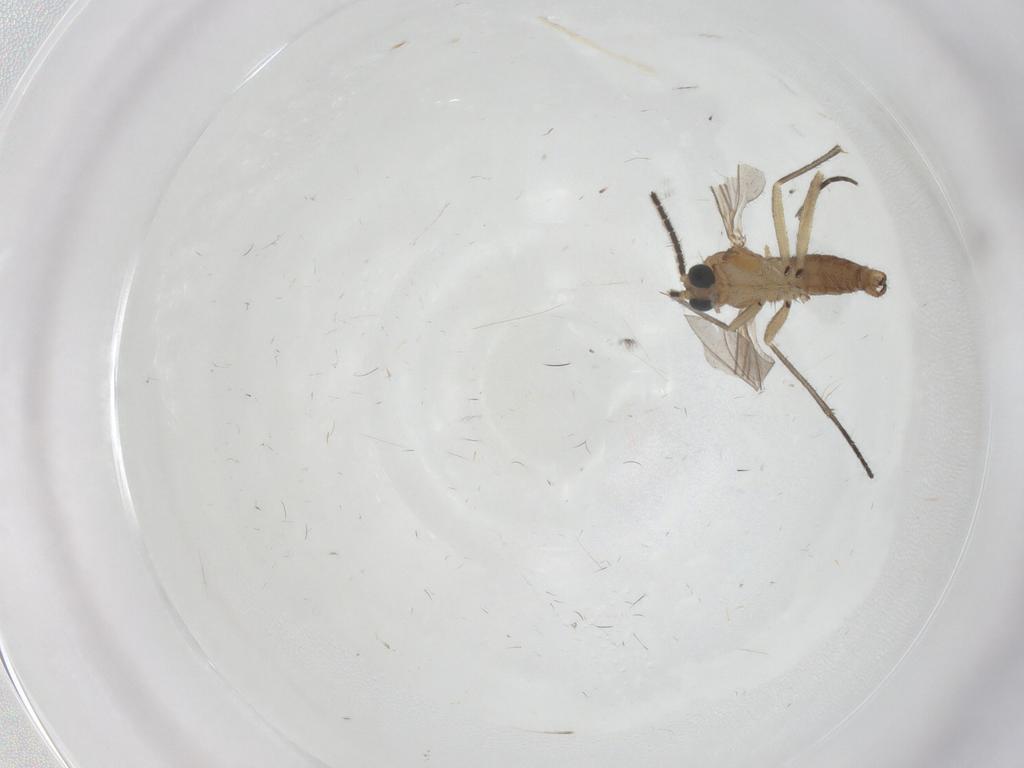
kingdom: Animalia
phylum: Arthropoda
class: Insecta
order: Diptera
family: Sciaridae
